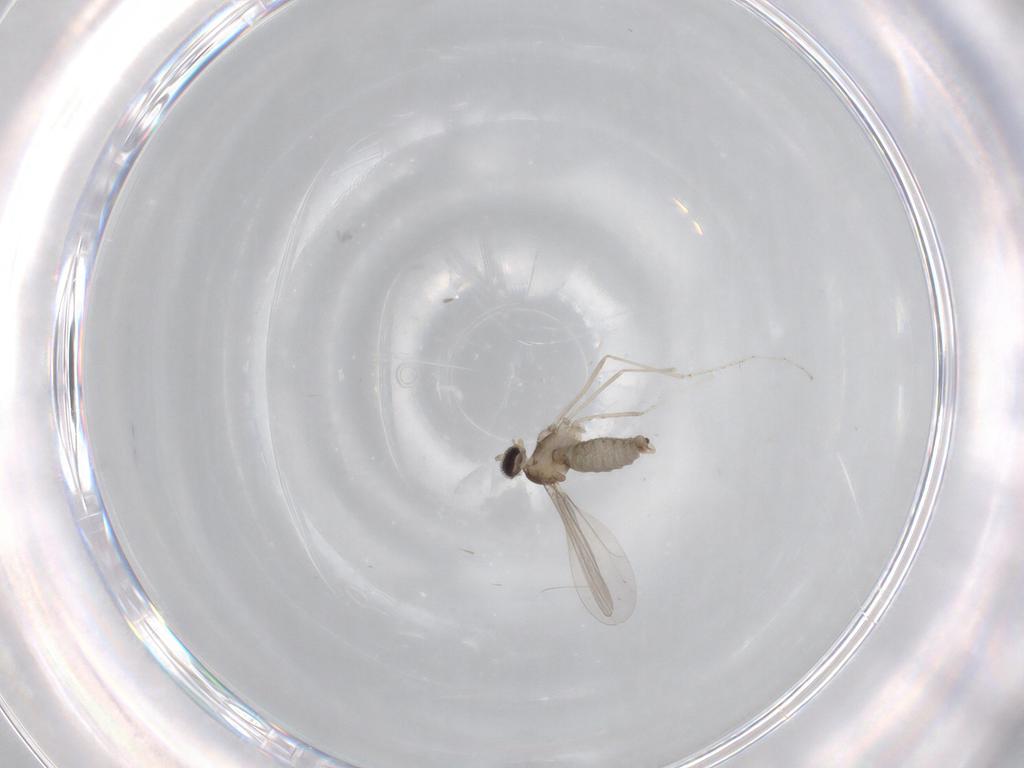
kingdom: Animalia
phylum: Arthropoda
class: Insecta
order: Diptera
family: Cecidomyiidae
